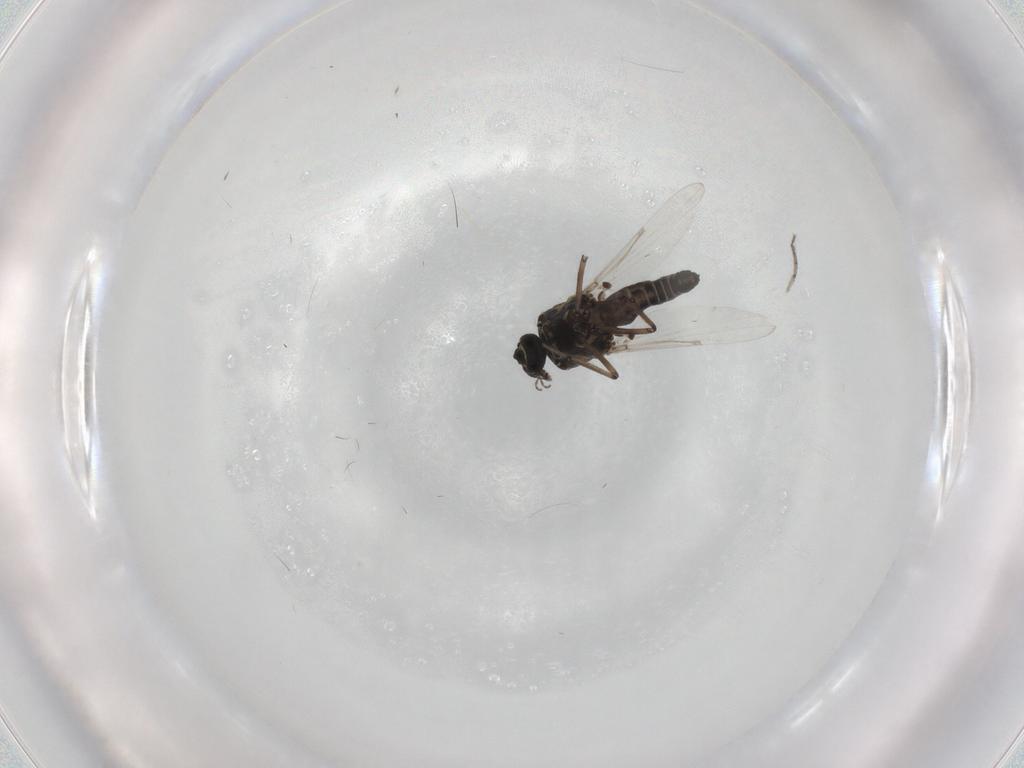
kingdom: Animalia
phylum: Arthropoda
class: Insecta
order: Diptera
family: Ceratopogonidae
